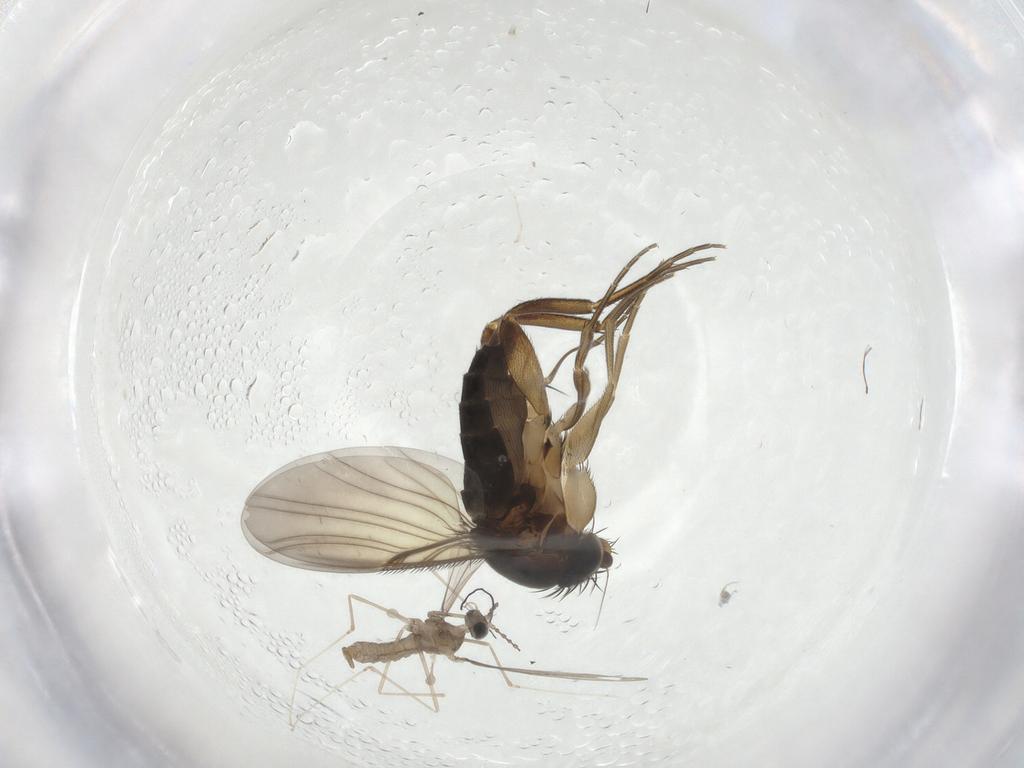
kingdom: Animalia
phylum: Arthropoda
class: Insecta
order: Diptera
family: Cecidomyiidae
